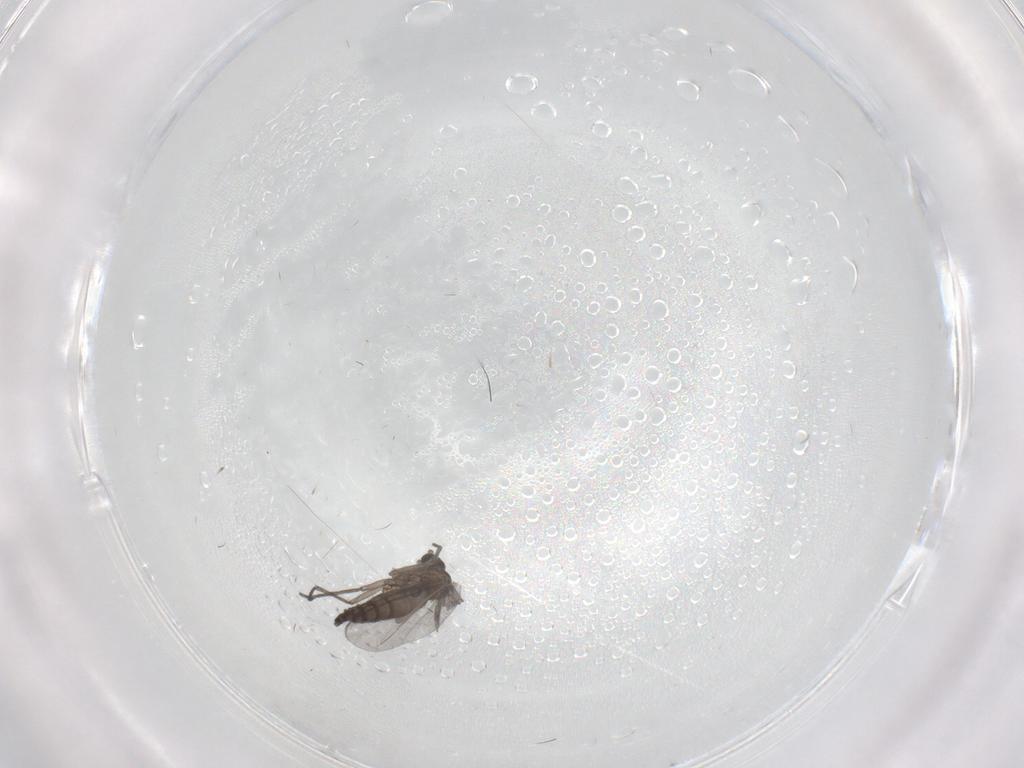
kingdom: Animalia
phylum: Arthropoda
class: Insecta
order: Diptera
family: Sciaridae
